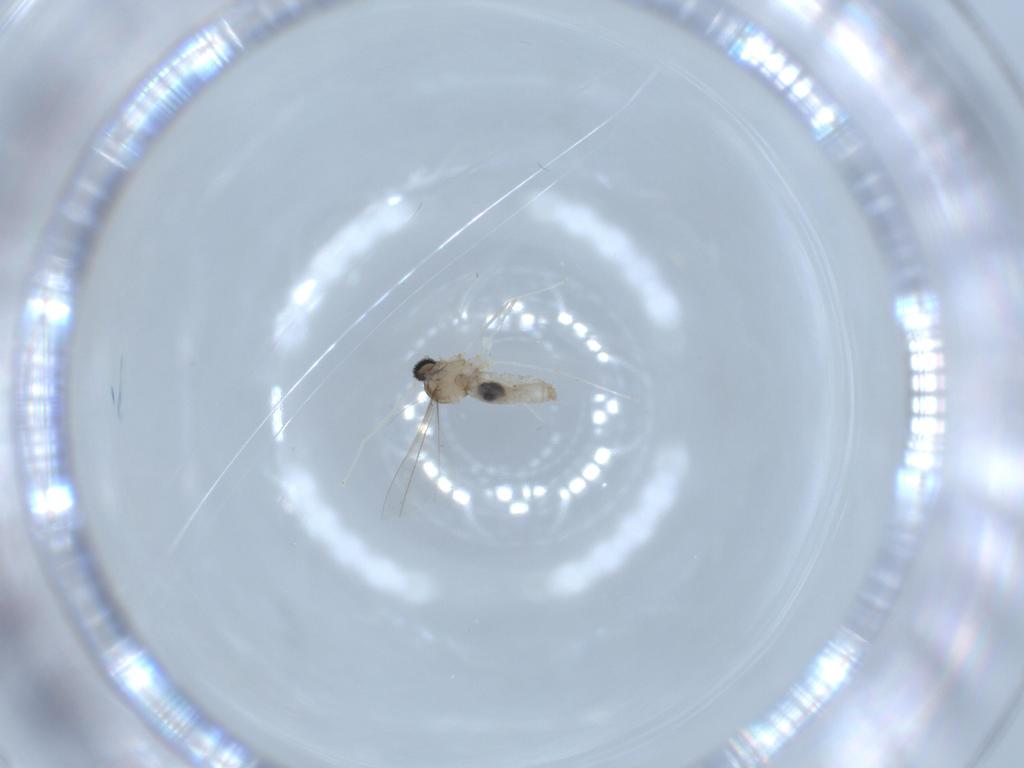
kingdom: Animalia
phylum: Arthropoda
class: Insecta
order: Diptera
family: Cecidomyiidae
